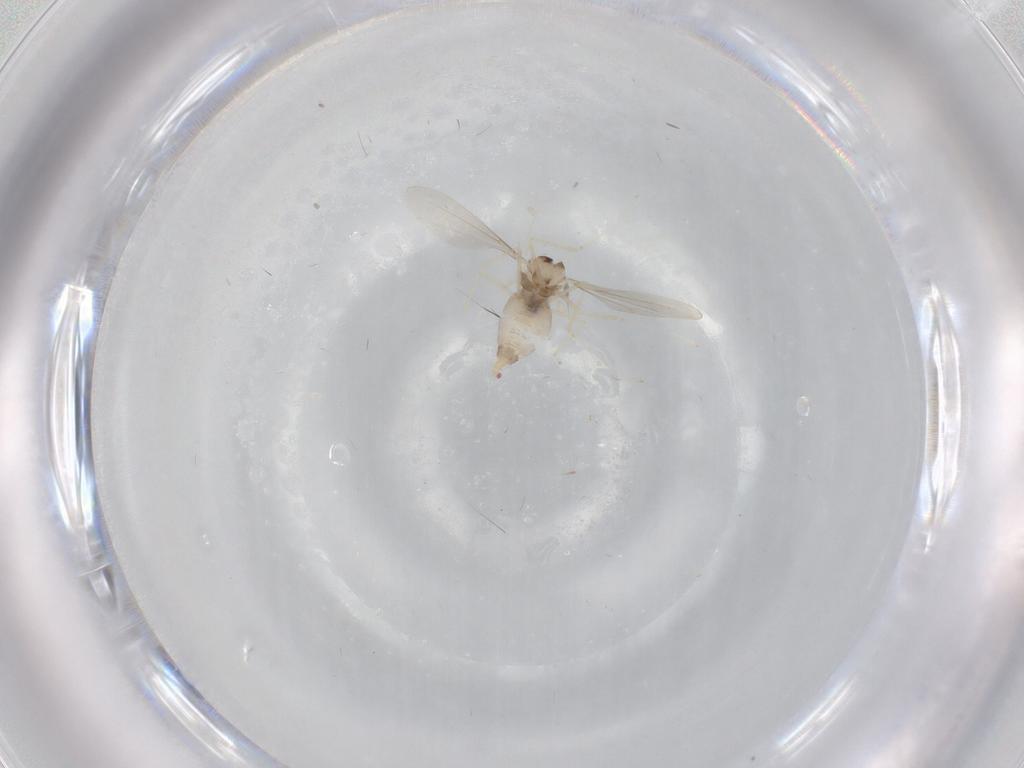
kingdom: Animalia
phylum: Arthropoda
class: Insecta
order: Diptera
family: Cecidomyiidae
